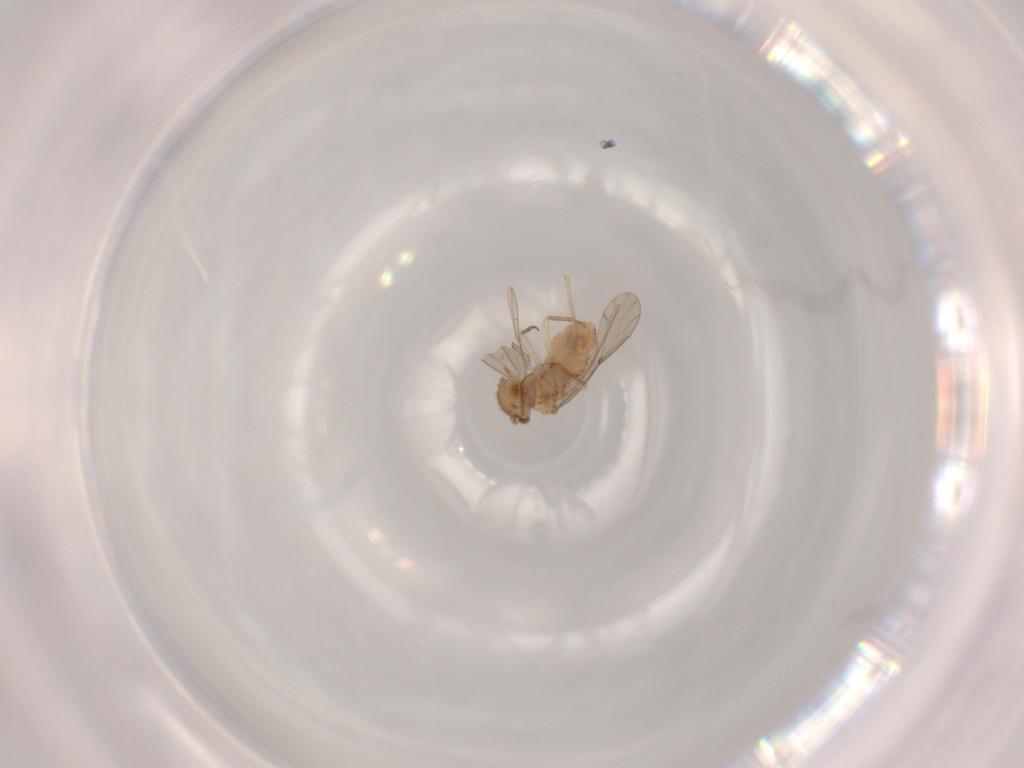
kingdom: Animalia
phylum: Arthropoda
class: Insecta
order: Psocodea
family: Ectopsocidae
